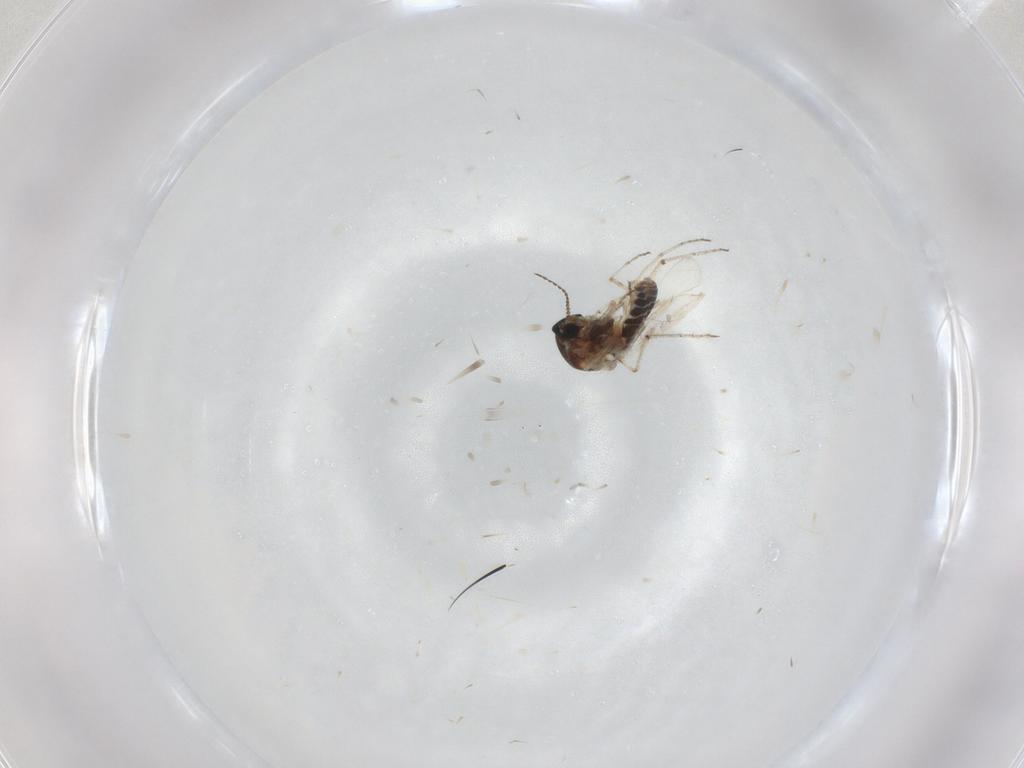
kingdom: Animalia
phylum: Arthropoda
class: Insecta
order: Diptera
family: Ceratopogonidae
